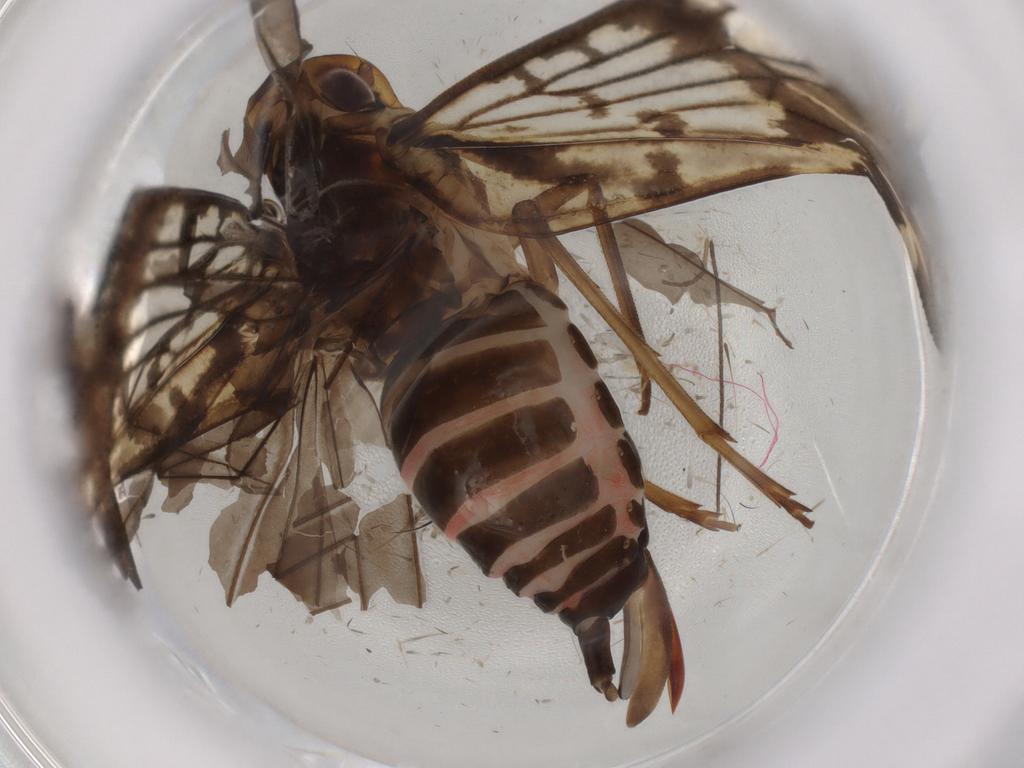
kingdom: Animalia
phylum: Arthropoda
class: Insecta
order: Hemiptera
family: Cixiidae
